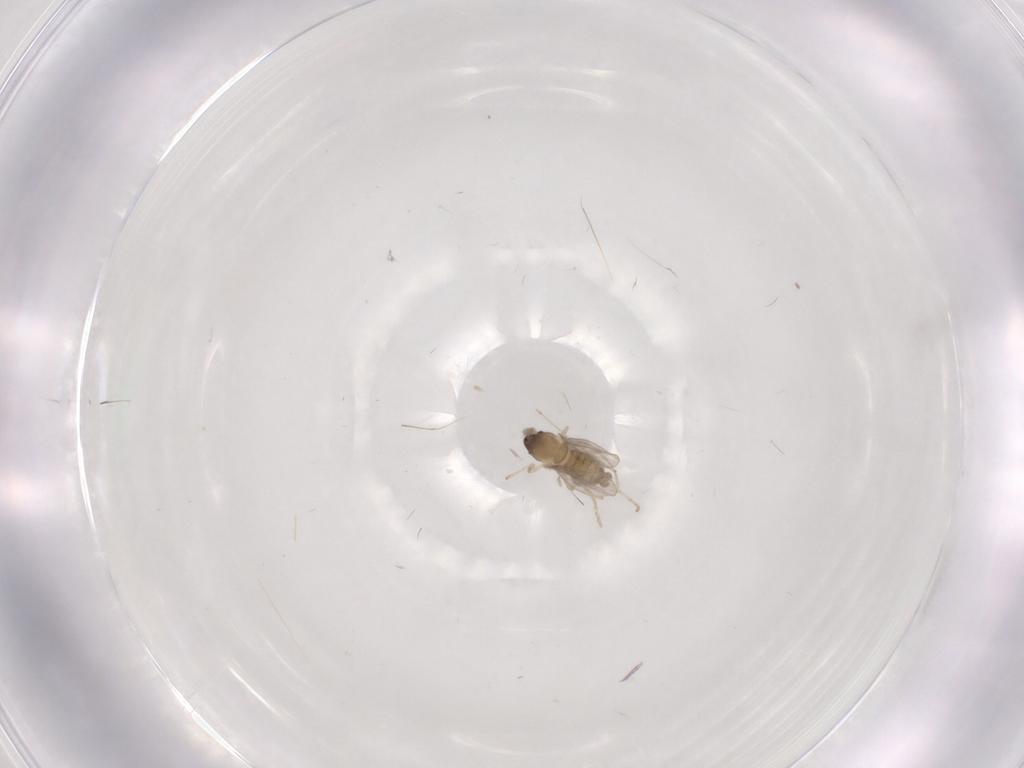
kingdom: Animalia
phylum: Arthropoda
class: Insecta
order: Diptera
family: Cecidomyiidae
